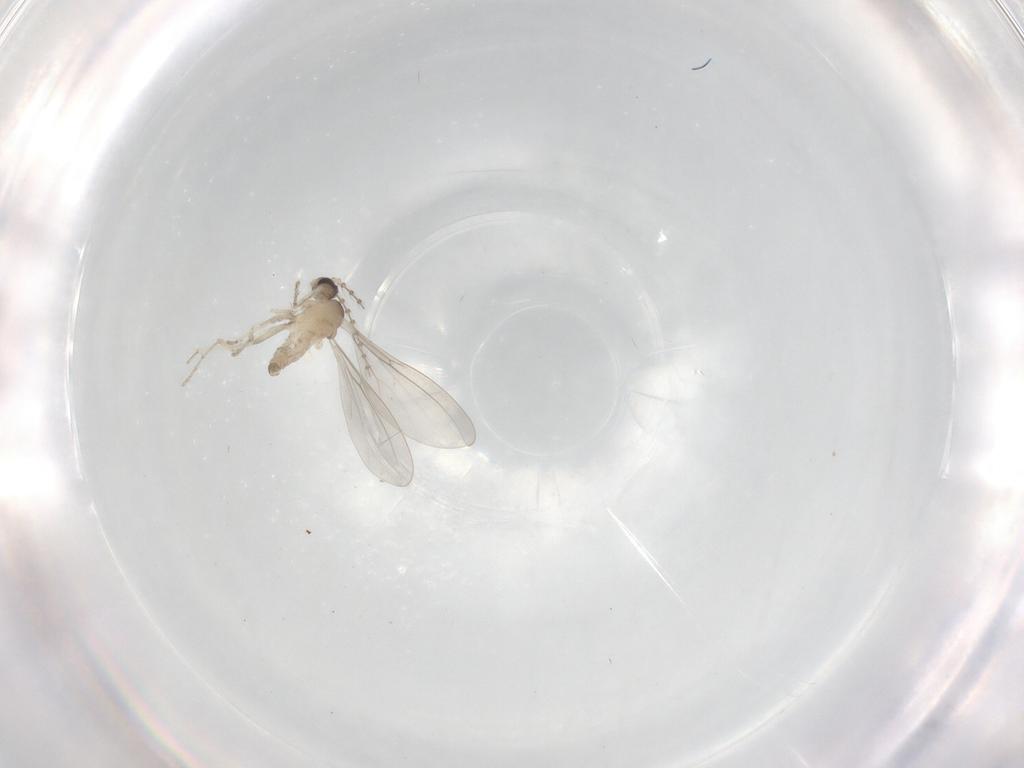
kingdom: Animalia
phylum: Arthropoda
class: Insecta
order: Diptera
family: Cecidomyiidae
